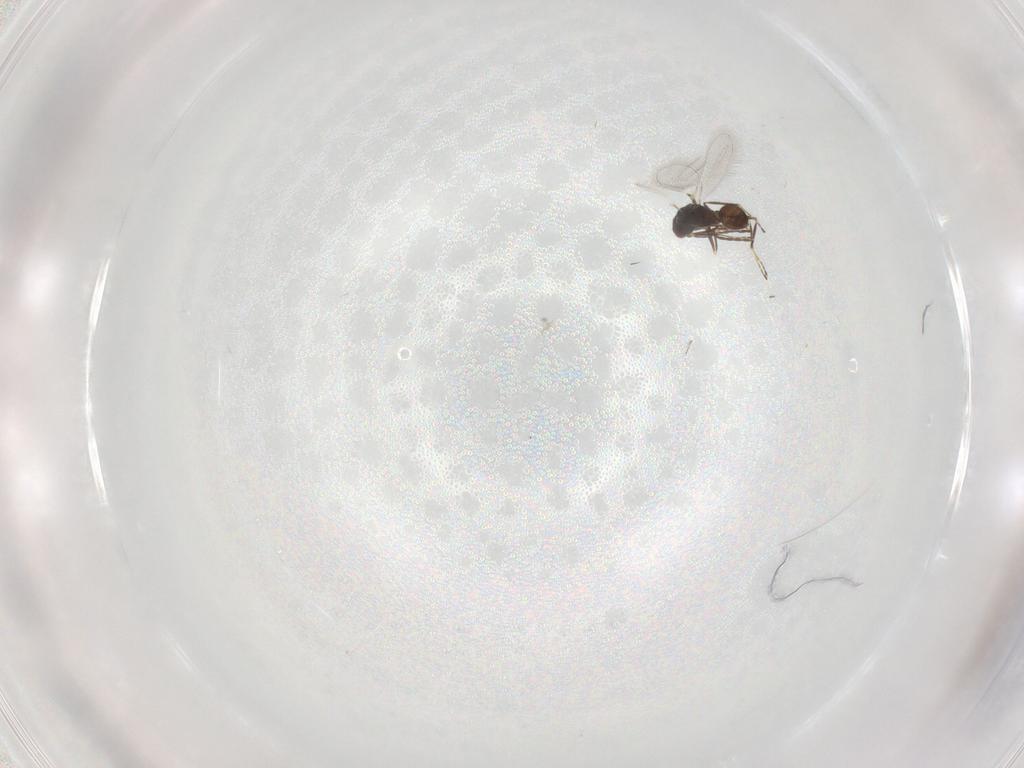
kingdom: Animalia
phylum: Arthropoda
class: Insecta
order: Hymenoptera
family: Mymaridae
